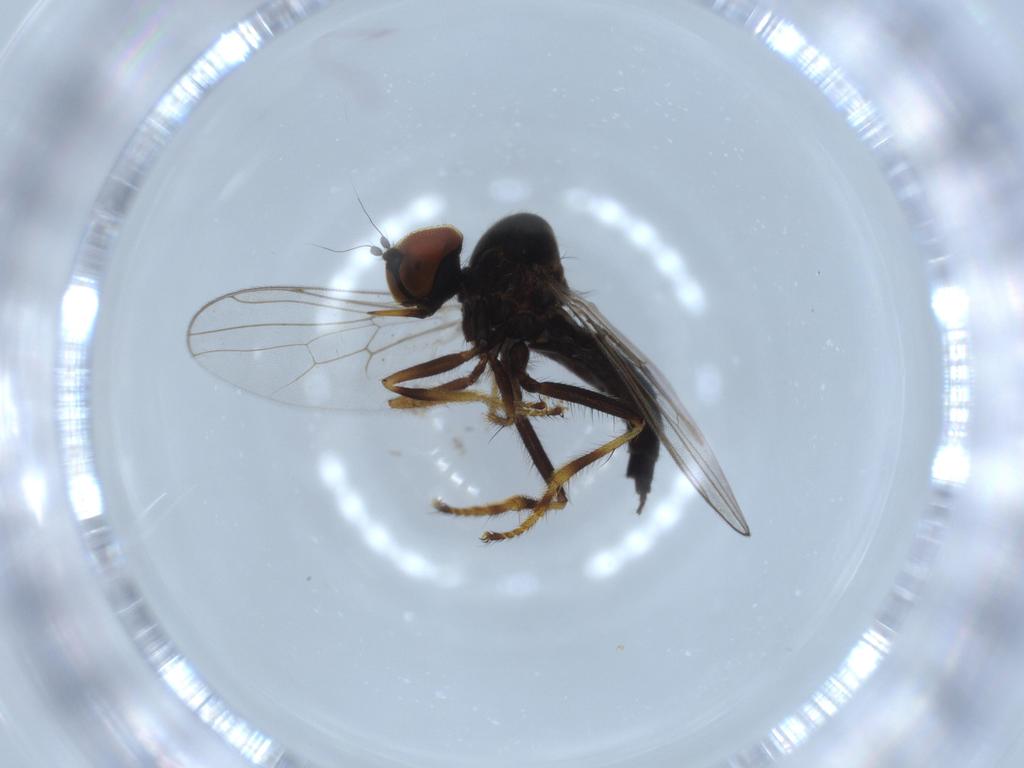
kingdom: Animalia
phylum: Arthropoda
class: Insecta
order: Diptera
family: Hybotidae
